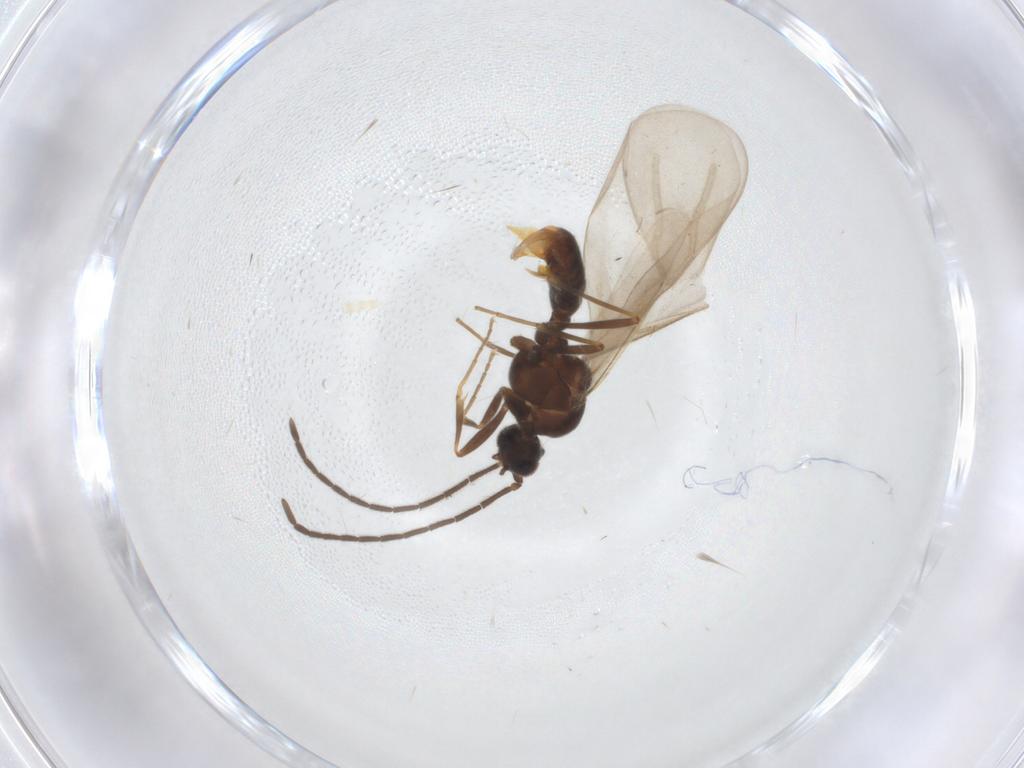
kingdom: Animalia
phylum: Arthropoda
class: Insecta
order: Hymenoptera
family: Formicidae
